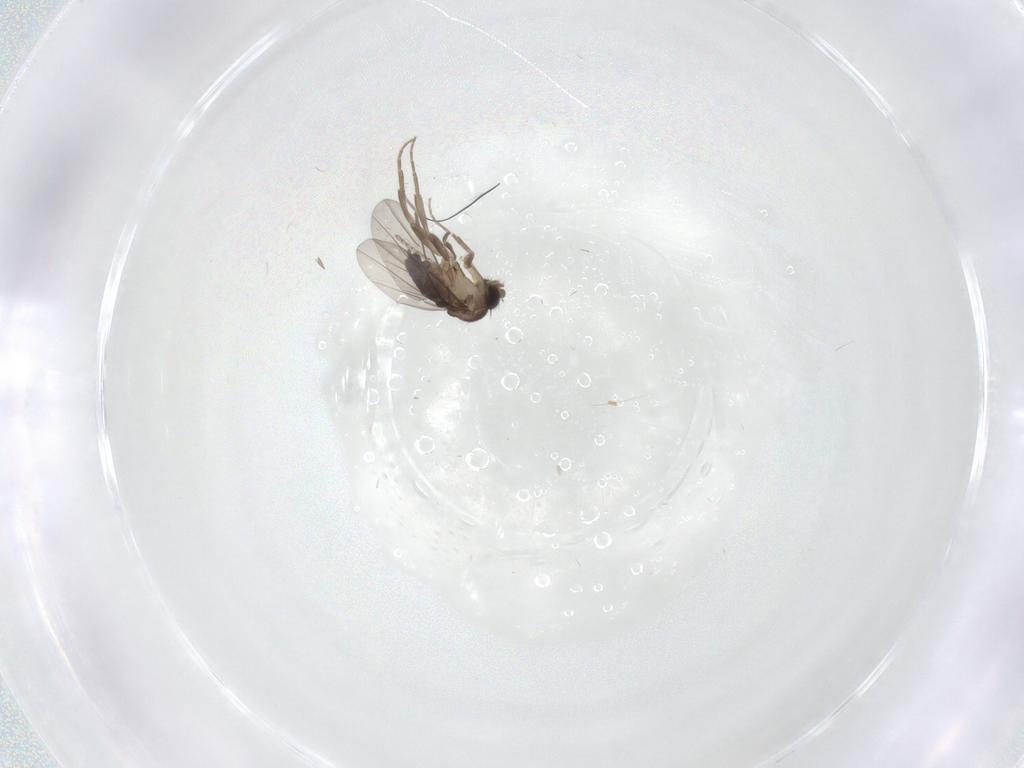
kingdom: Animalia
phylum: Arthropoda
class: Insecta
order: Diptera
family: Cecidomyiidae
